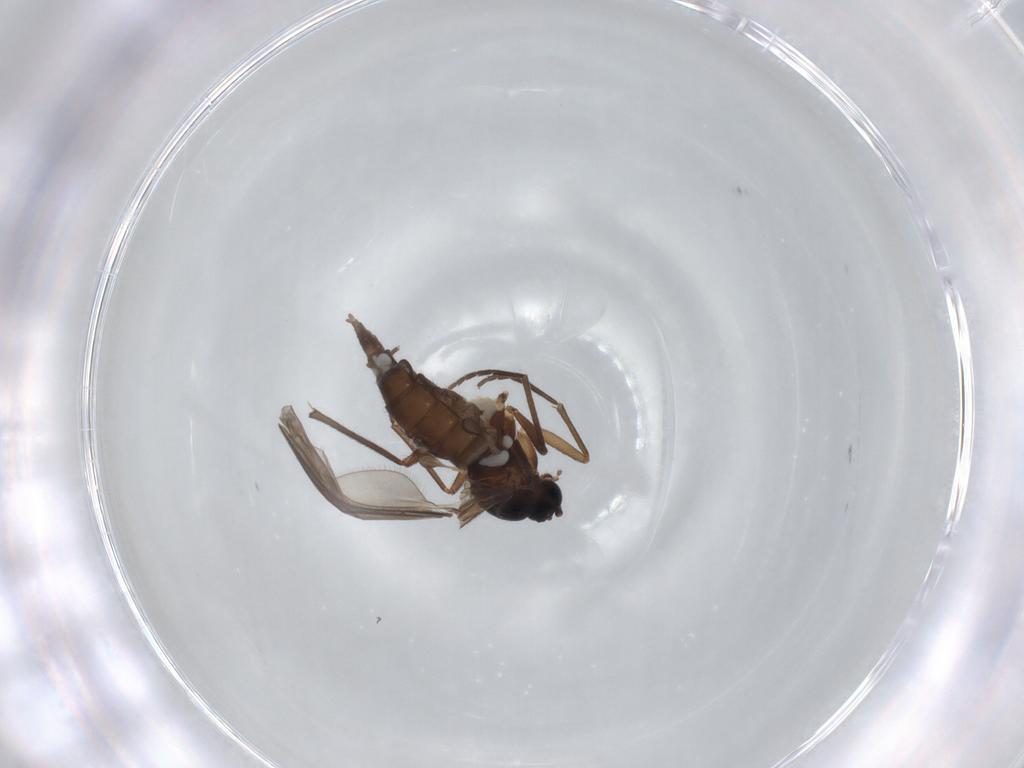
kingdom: Animalia
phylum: Arthropoda
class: Insecta
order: Diptera
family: Sciaridae
